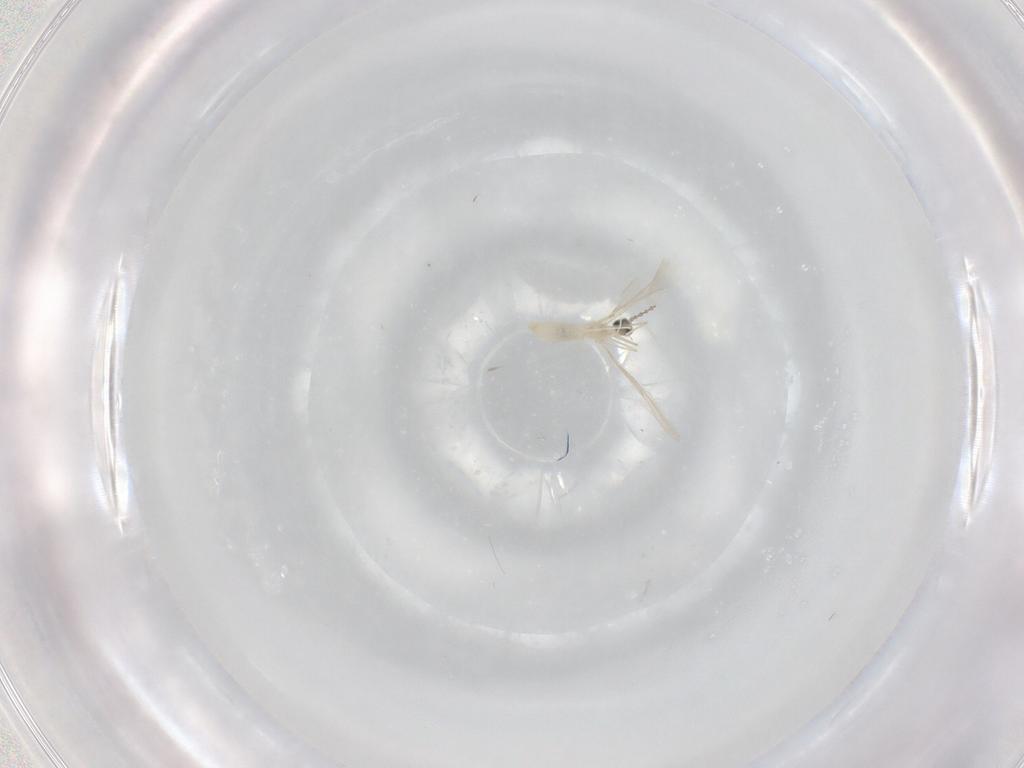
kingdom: Animalia
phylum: Arthropoda
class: Insecta
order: Diptera
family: Cecidomyiidae
